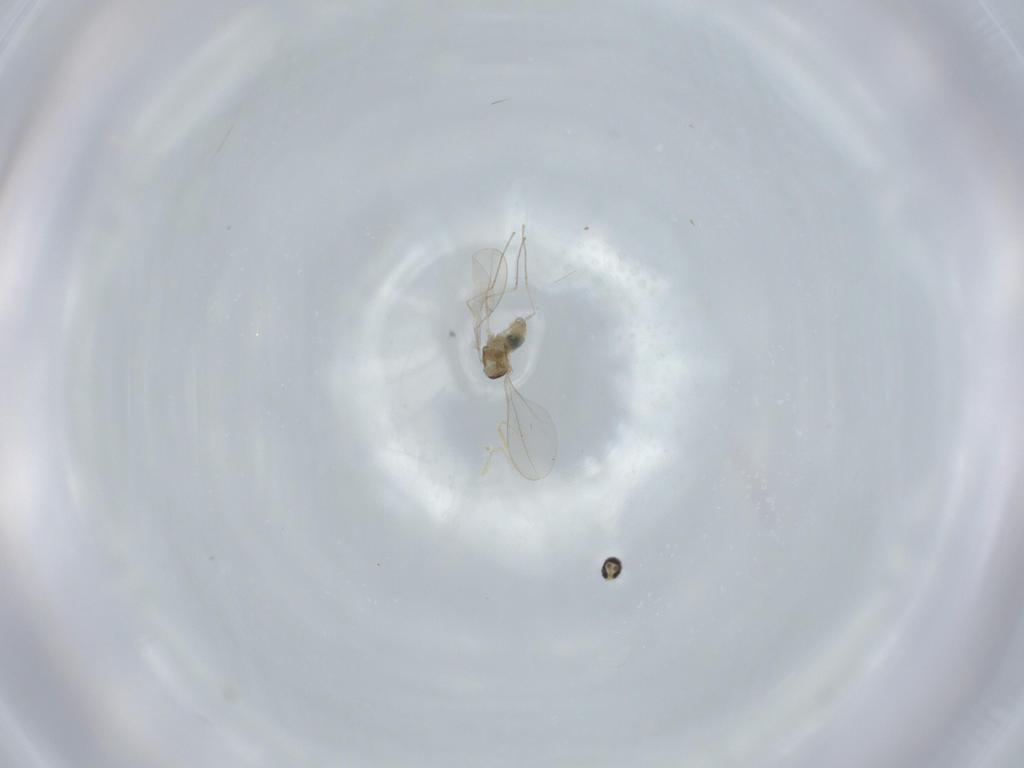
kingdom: Animalia
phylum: Arthropoda
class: Insecta
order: Diptera
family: Cecidomyiidae
